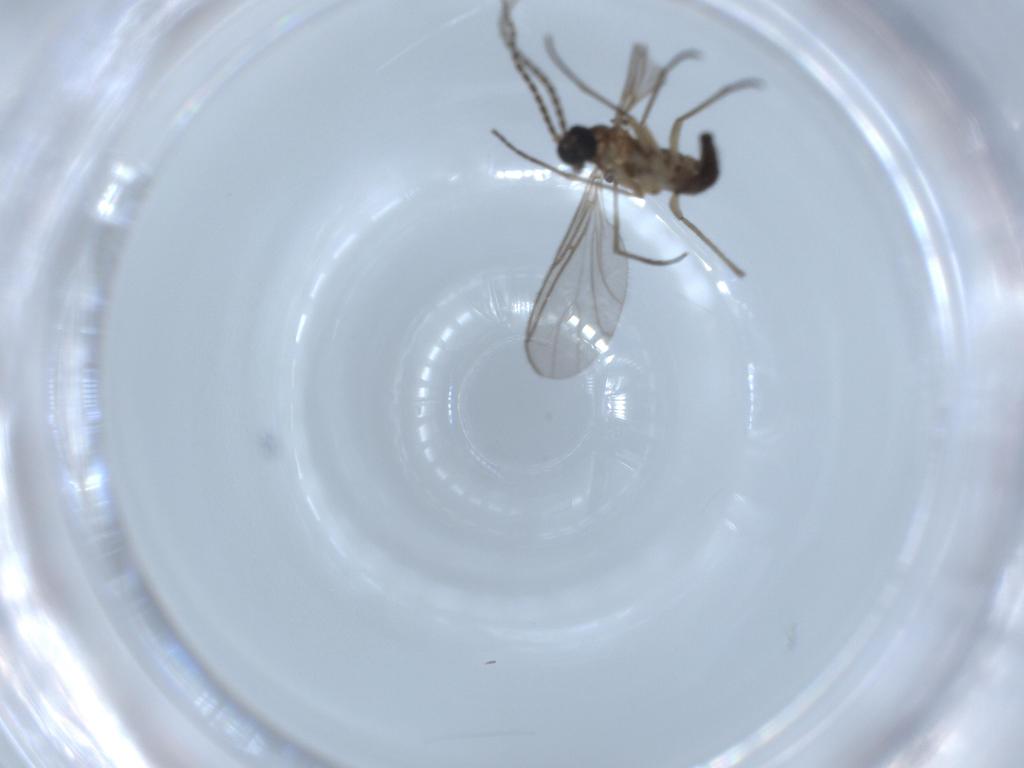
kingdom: Animalia
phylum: Arthropoda
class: Insecta
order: Diptera
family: Sciaridae
